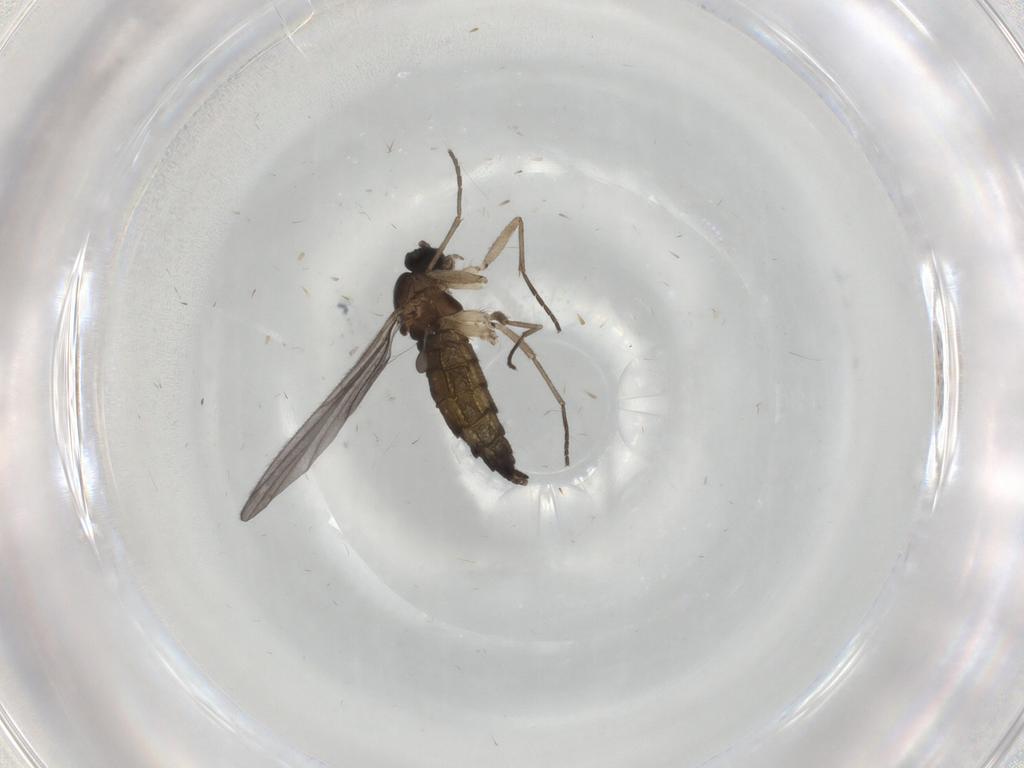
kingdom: Animalia
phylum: Arthropoda
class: Insecta
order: Diptera
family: Sciaridae
